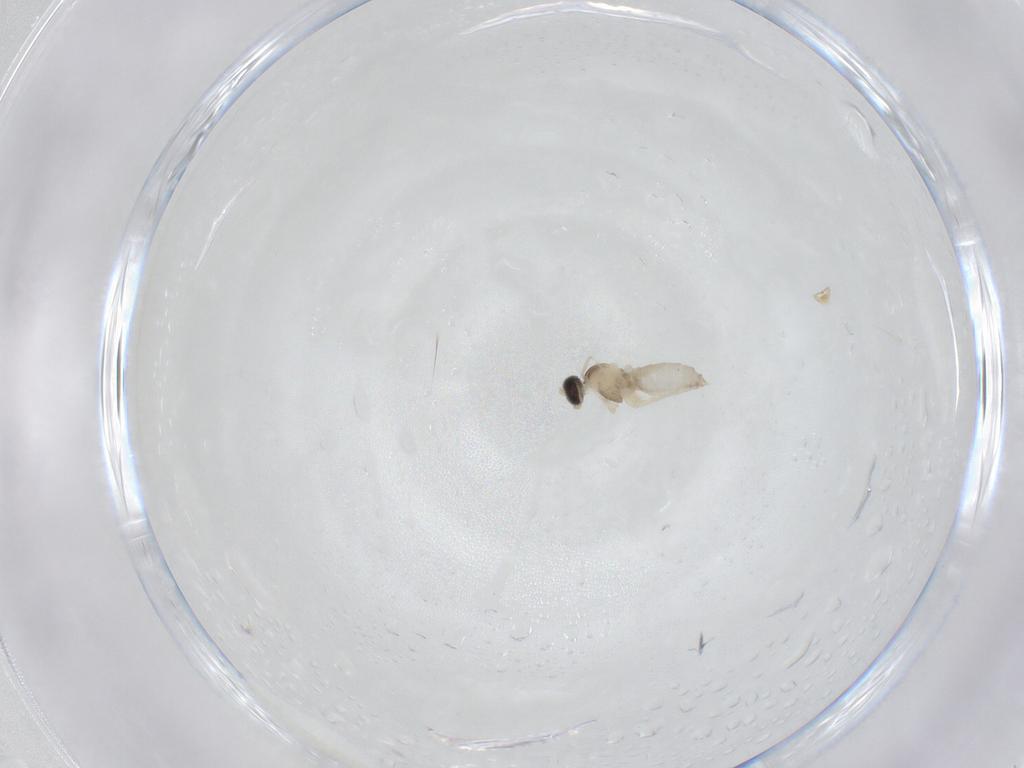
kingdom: Animalia
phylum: Arthropoda
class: Insecta
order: Diptera
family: Cecidomyiidae
